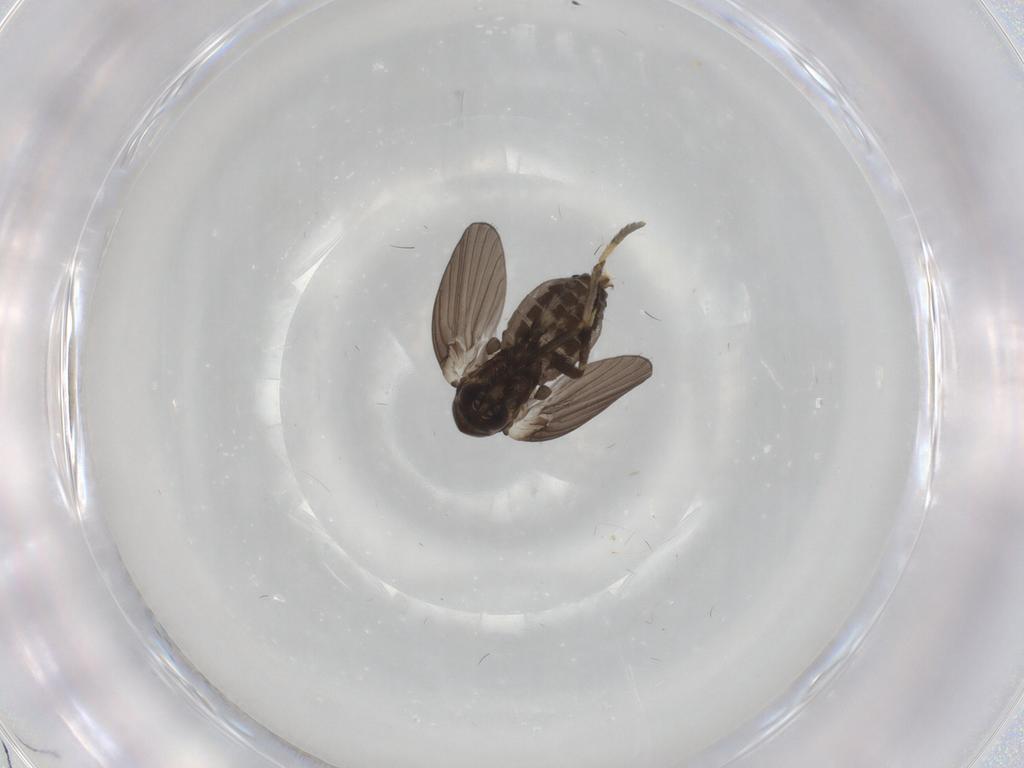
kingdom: Animalia
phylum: Arthropoda
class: Insecta
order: Diptera
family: Psychodidae
